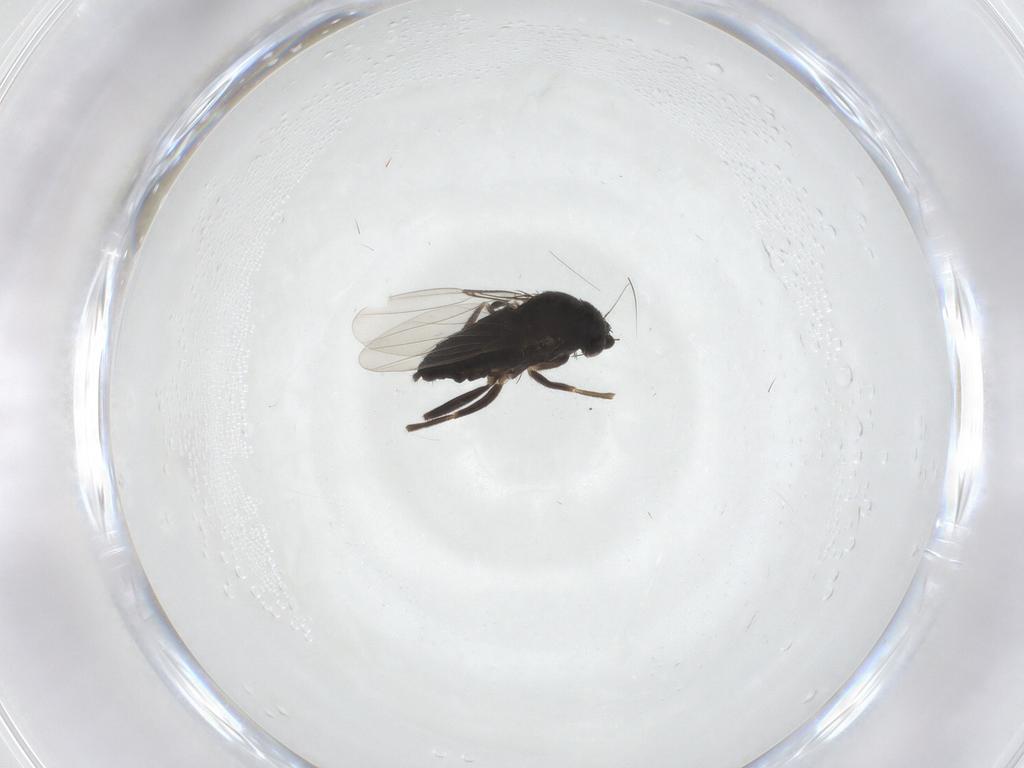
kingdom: Animalia
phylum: Arthropoda
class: Insecta
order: Diptera
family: Phoridae
